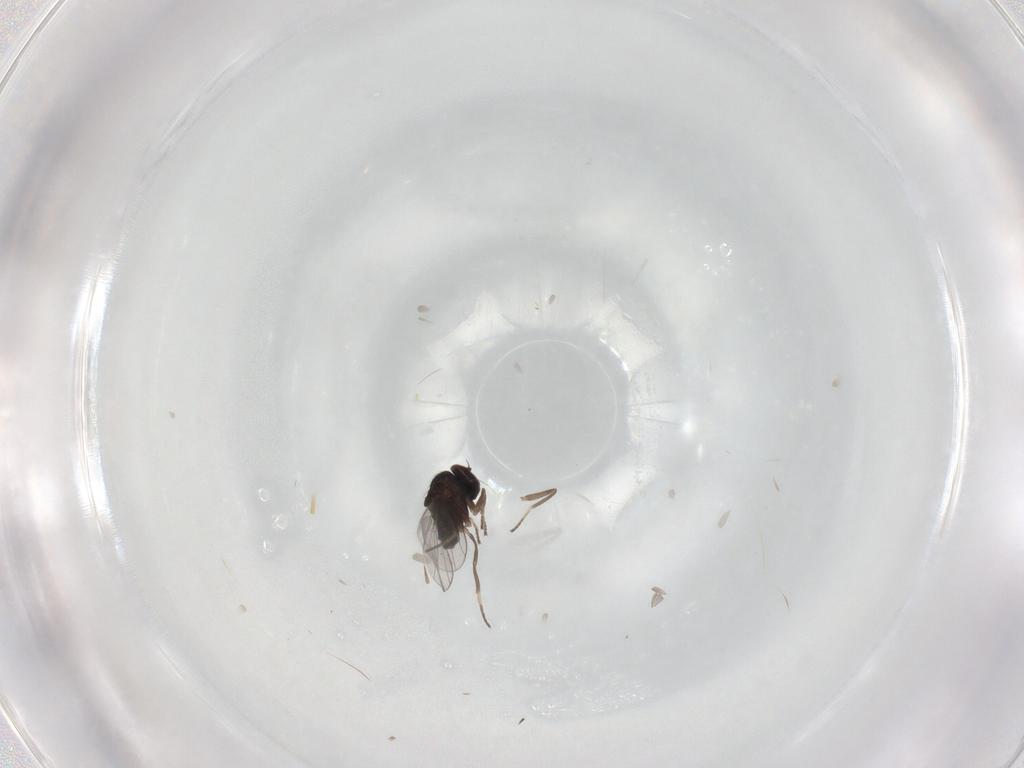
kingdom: Animalia
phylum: Arthropoda
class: Insecta
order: Diptera
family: Dolichopodidae
